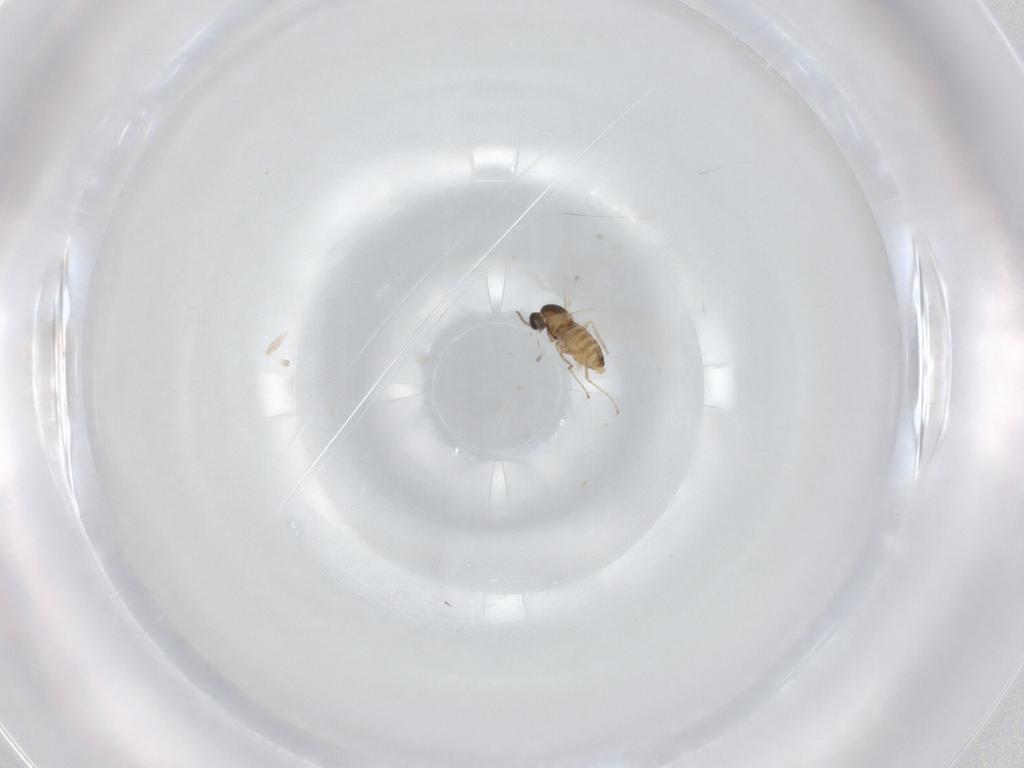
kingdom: Animalia
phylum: Arthropoda
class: Insecta
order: Diptera
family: Cecidomyiidae
